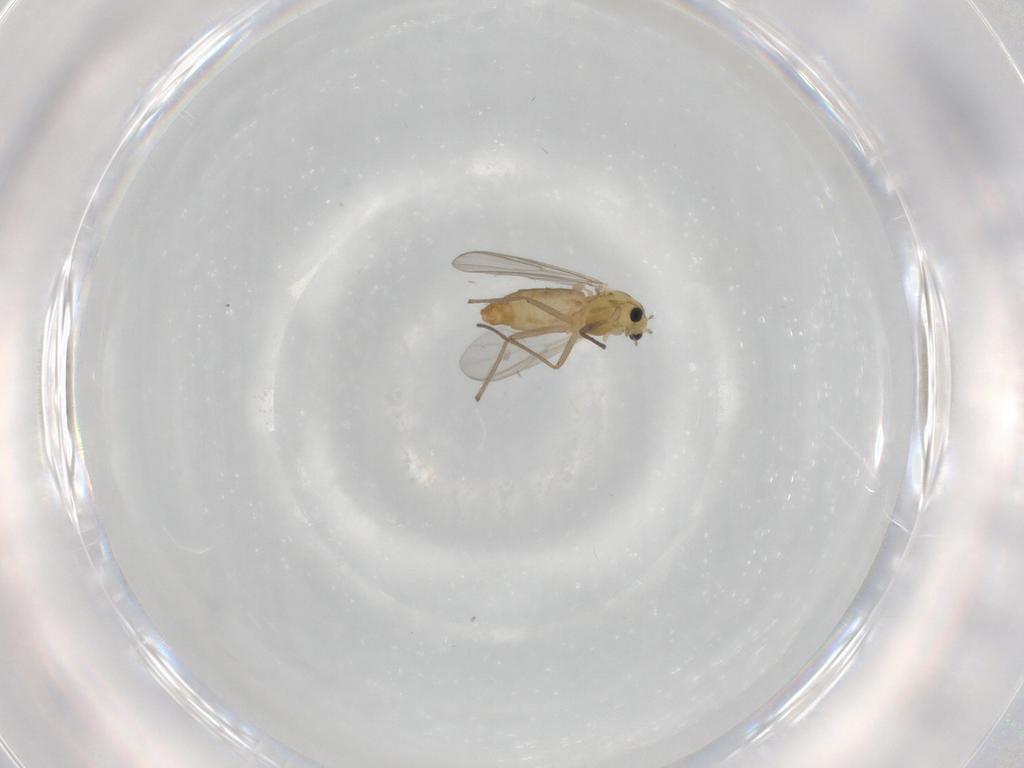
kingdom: Animalia
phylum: Arthropoda
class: Insecta
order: Diptera
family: Chironomidae
